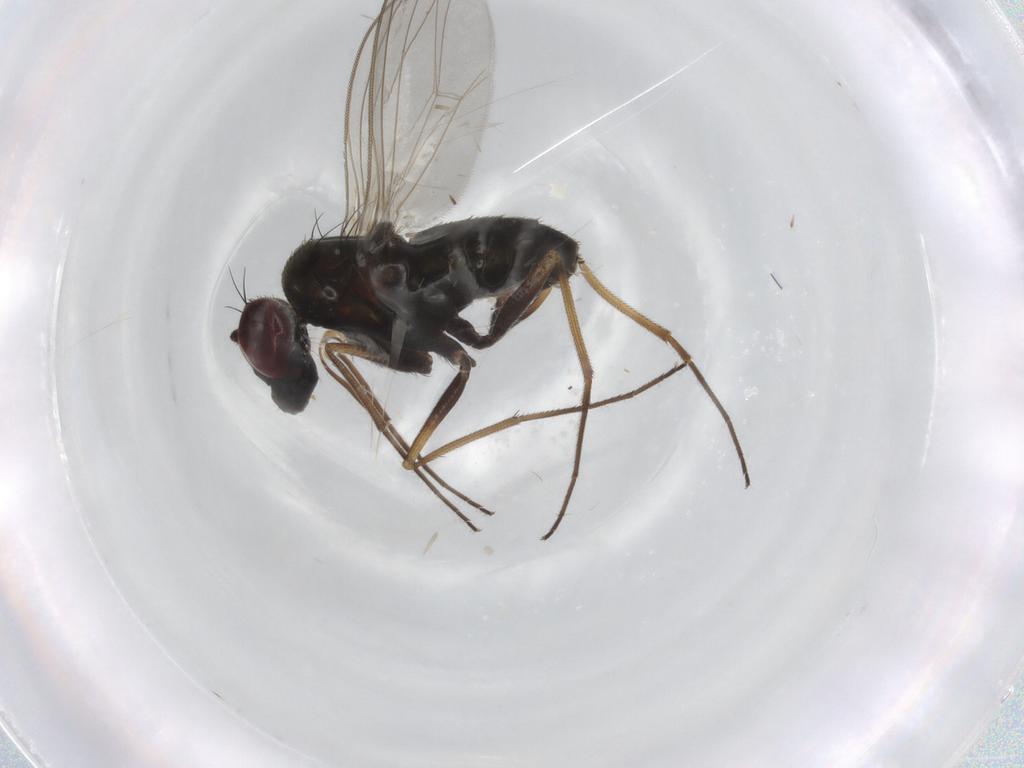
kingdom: Animalia
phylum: Arthropoda
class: Insecta
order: Diptera
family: Dolichopodidae
